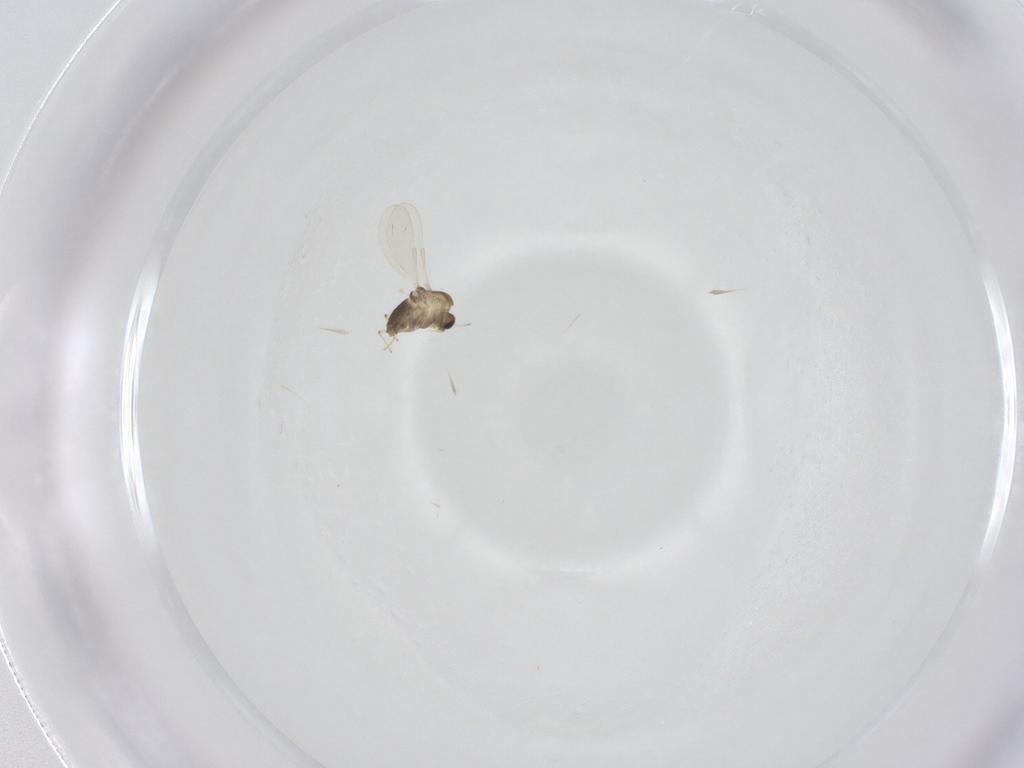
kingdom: Animalia
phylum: Arthropoda
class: Insecta
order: Diptera
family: Chironomidae
